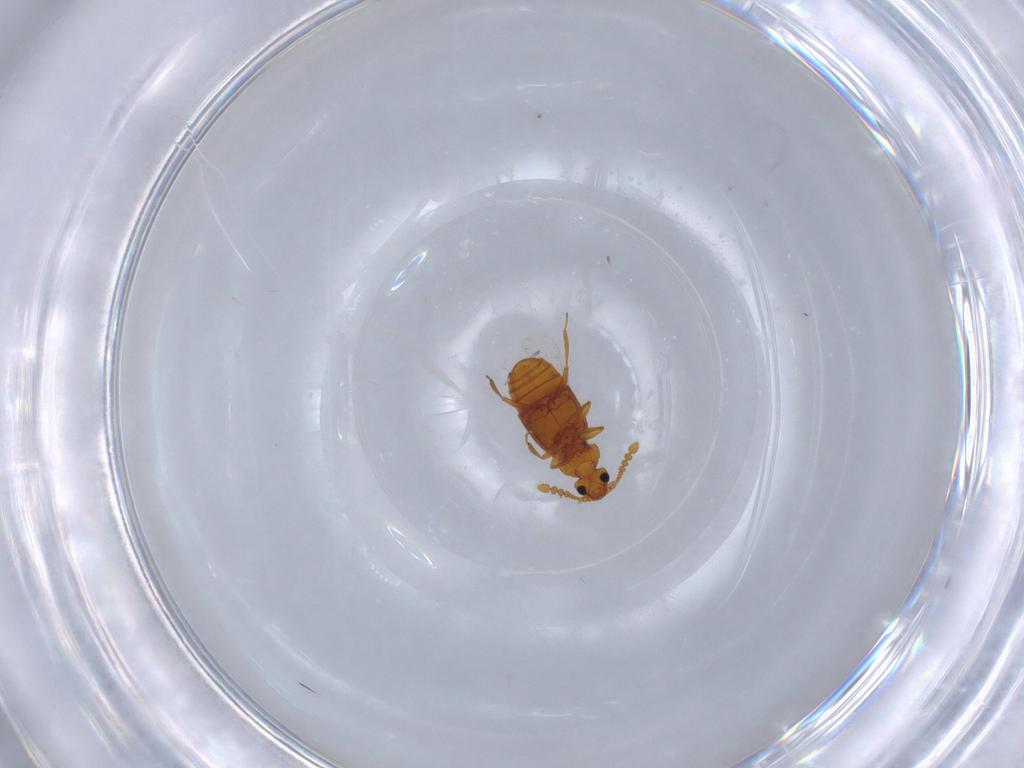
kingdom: Animalia
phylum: Arthropoda
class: Insecta
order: Coleoptera
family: Staphylinidae
